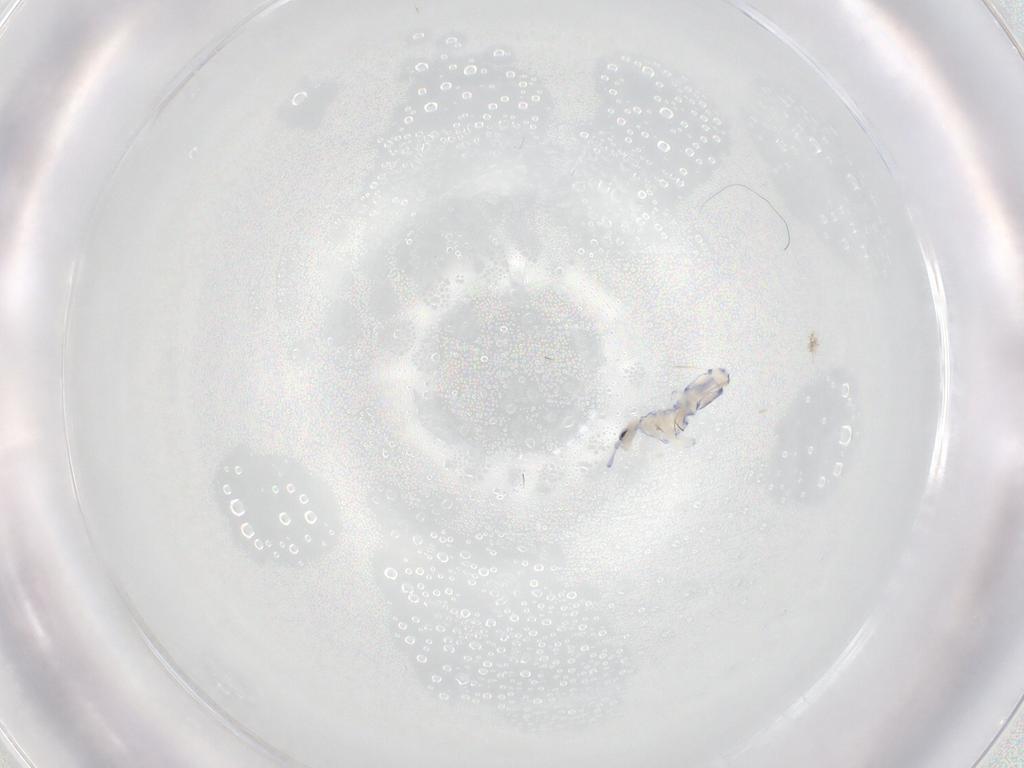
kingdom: Animalia
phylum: Arthropoda
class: Collembola
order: Entomobryomorpha
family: Entomobryidae
